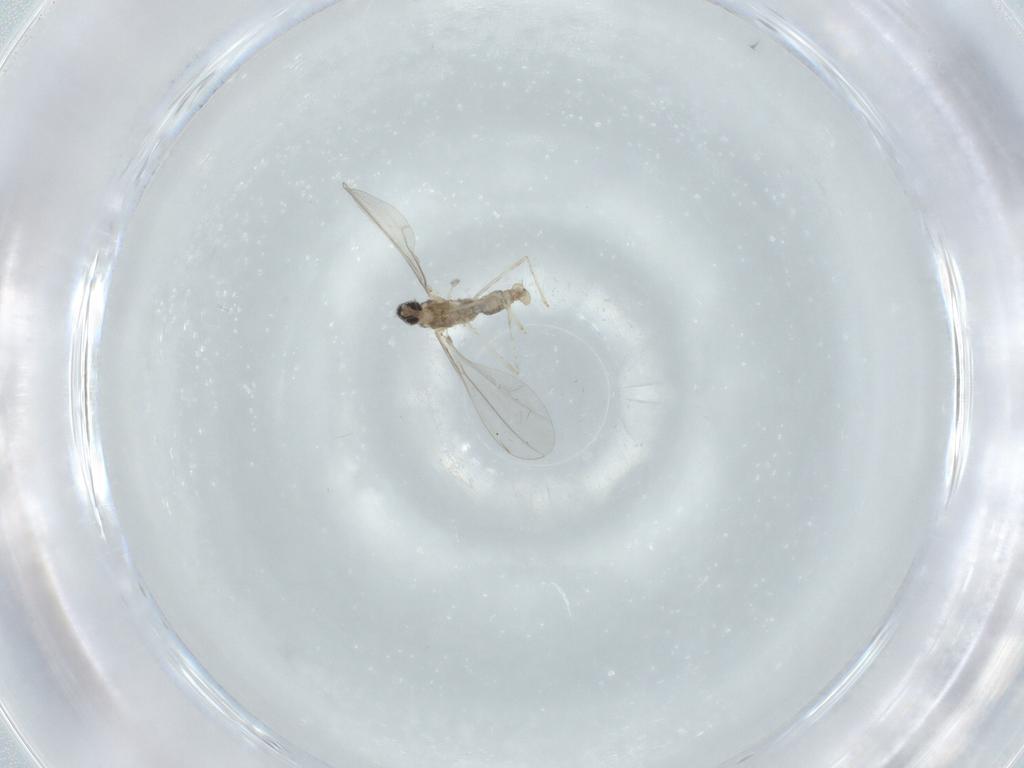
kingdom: Animalia
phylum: Arthropoda
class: Insecta
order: Diptera
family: Cecidomyiidae
